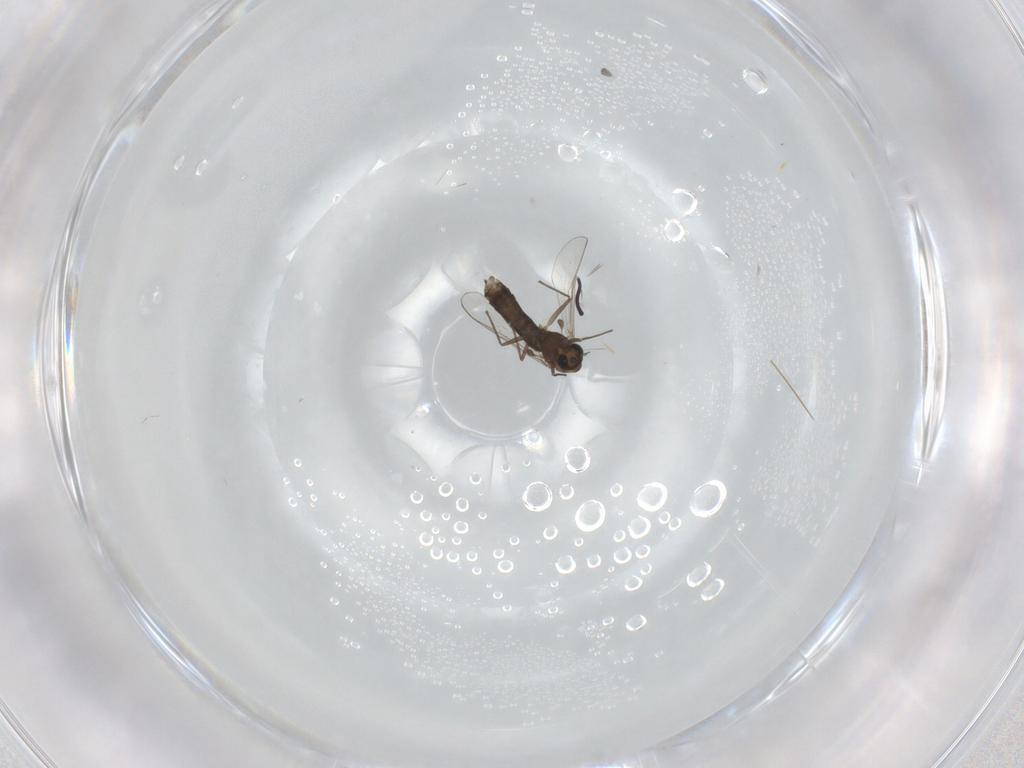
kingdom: Animalia
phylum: Arthropoda
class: Insecta
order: Diptera
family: Chironomidae
